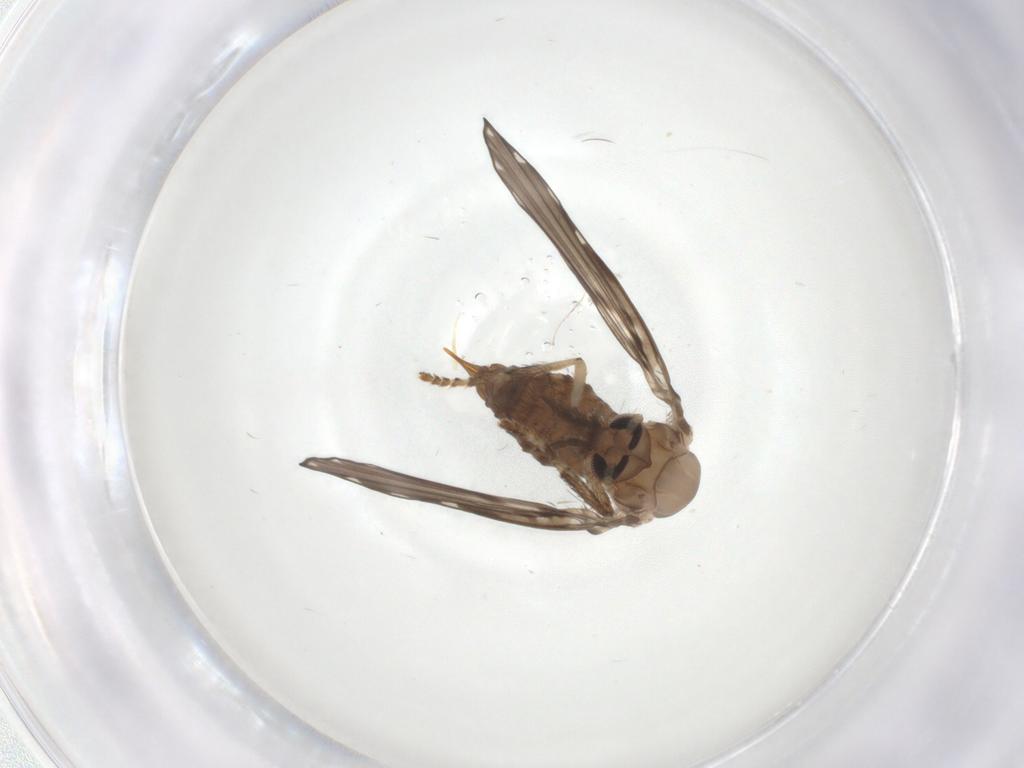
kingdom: Animalia
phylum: Arthropoda
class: Insecta
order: Diptera
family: Psychodidae
